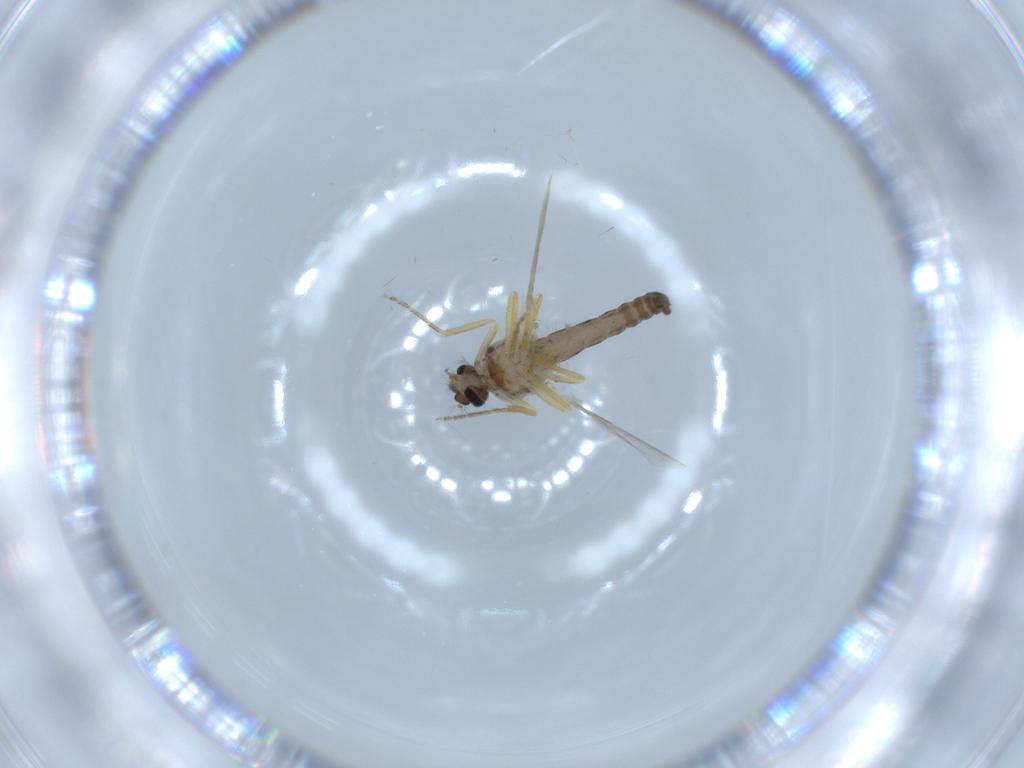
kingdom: Animalia
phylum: Arthropoda
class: Insecta
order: Diptera
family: Ceratopogonidae
